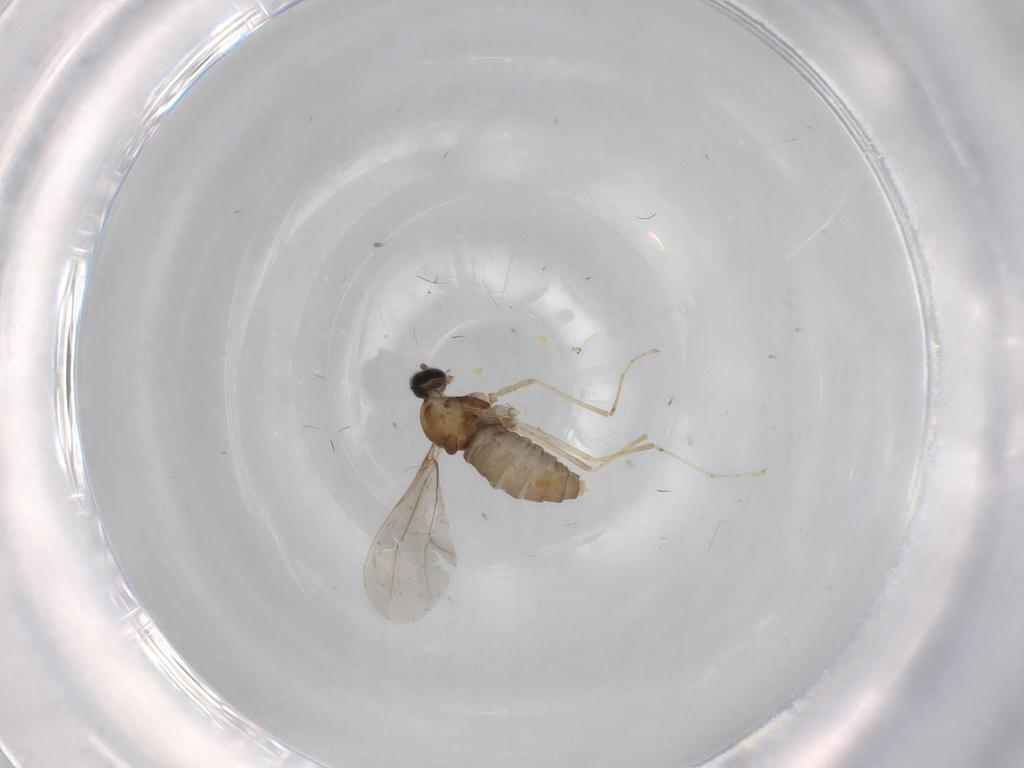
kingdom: Animalia
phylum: Arthropoda
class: Insecta
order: Diptera
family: Cecidomyiidae
